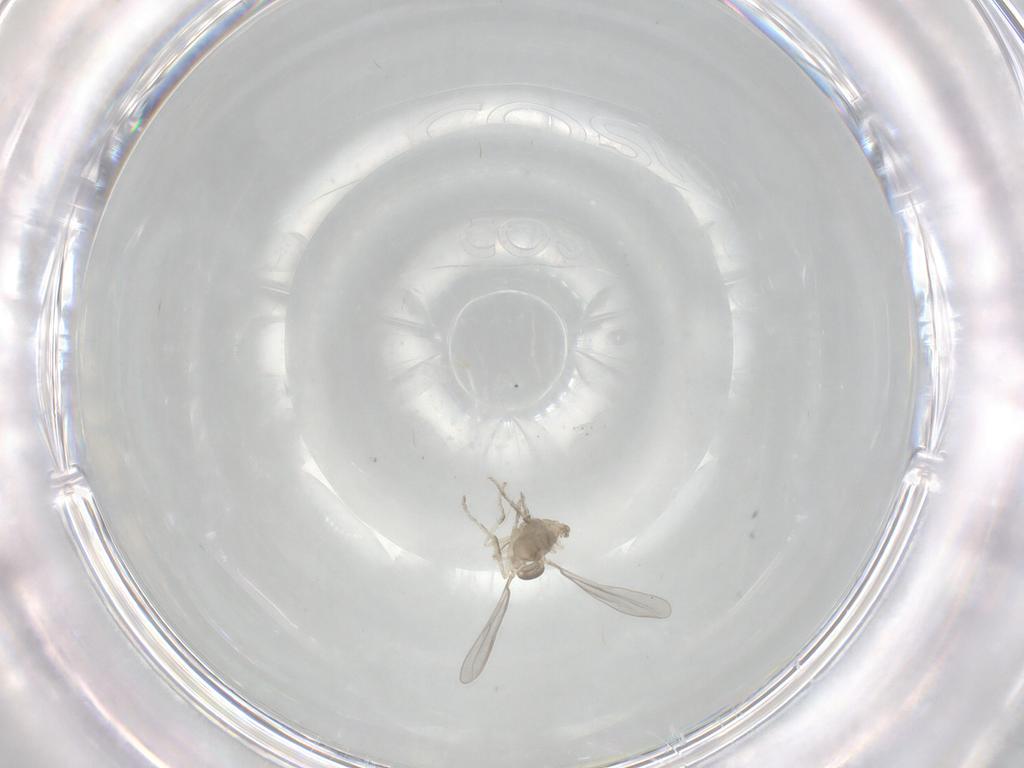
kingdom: Animalia
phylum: Arthropoda
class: Insecta
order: Diptera
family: Cecidomyiidae
